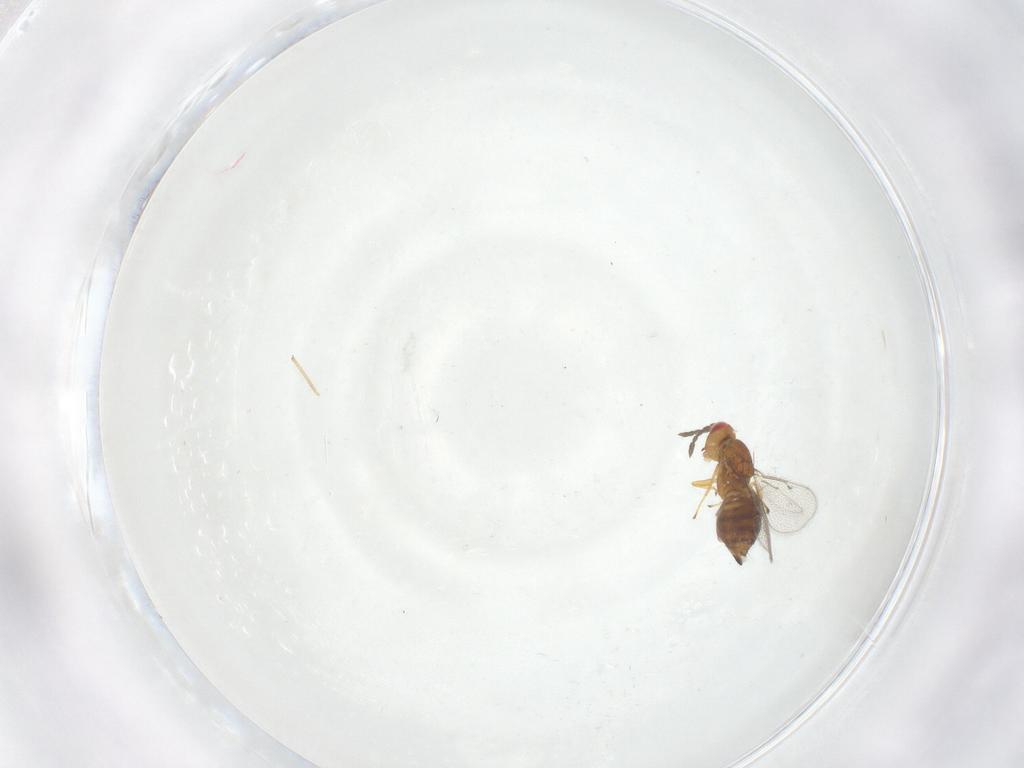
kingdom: Animalia
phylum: Arthropoda
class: Insecta
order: Hymenoptera
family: Eulophidae
